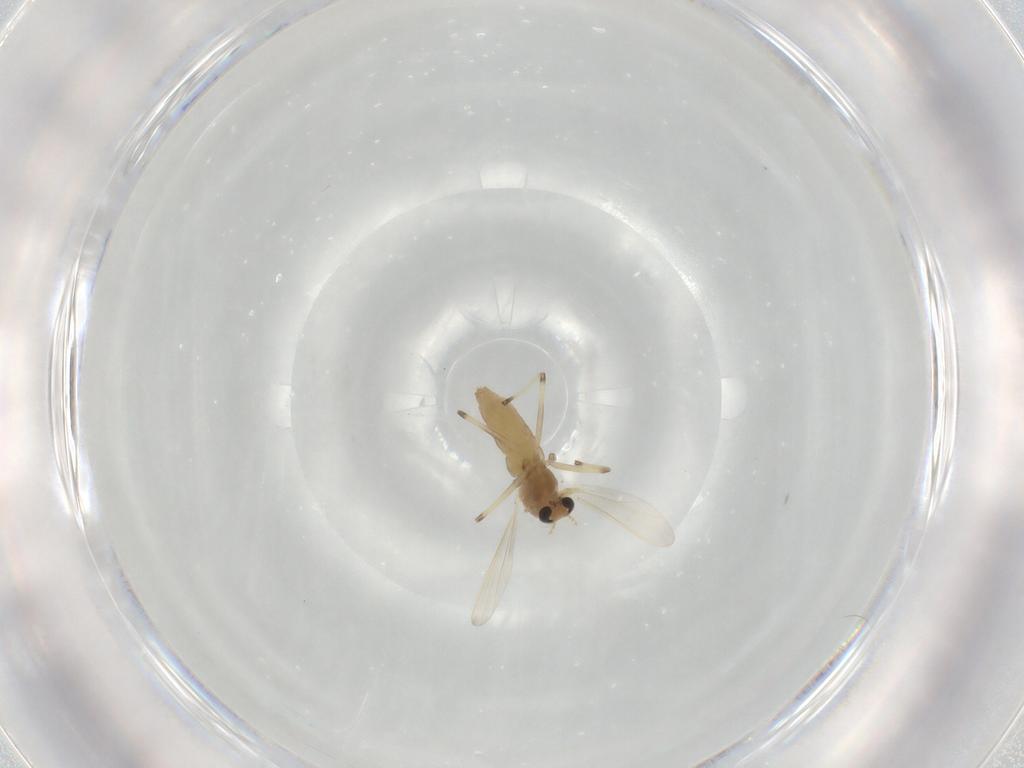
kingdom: Animalia
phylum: Arthropoda
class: Insecta
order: Diptera
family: Chironomidae
